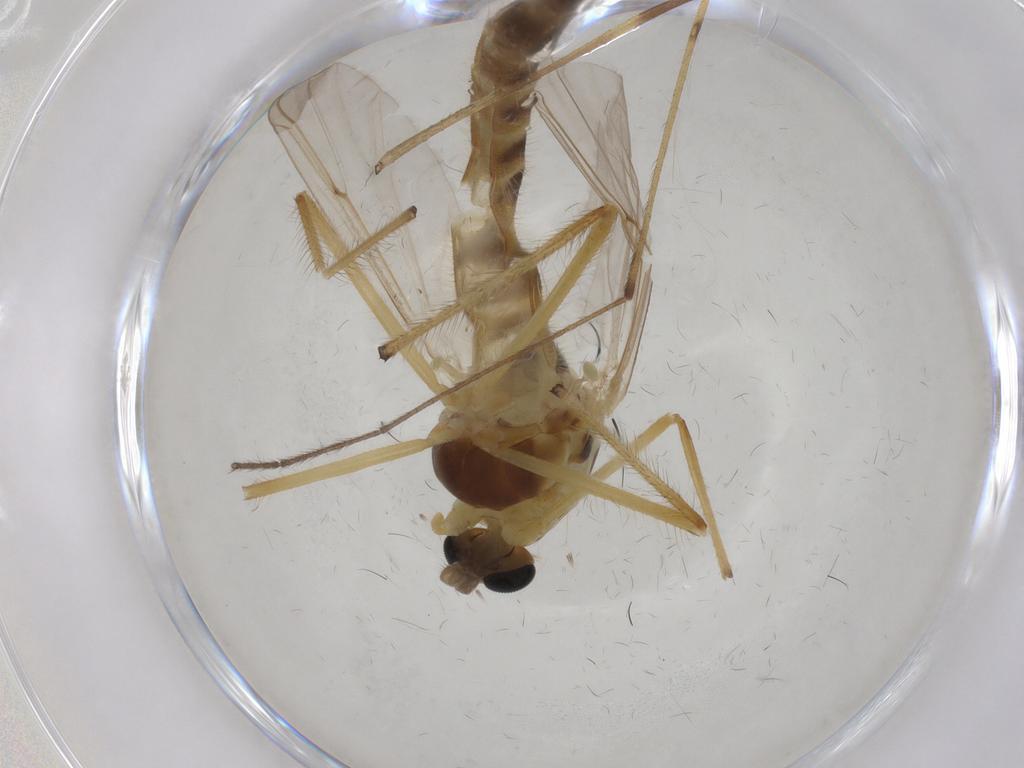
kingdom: Animalia
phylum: Arthropoda
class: Insecta
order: Diptera
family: Chironomidae
